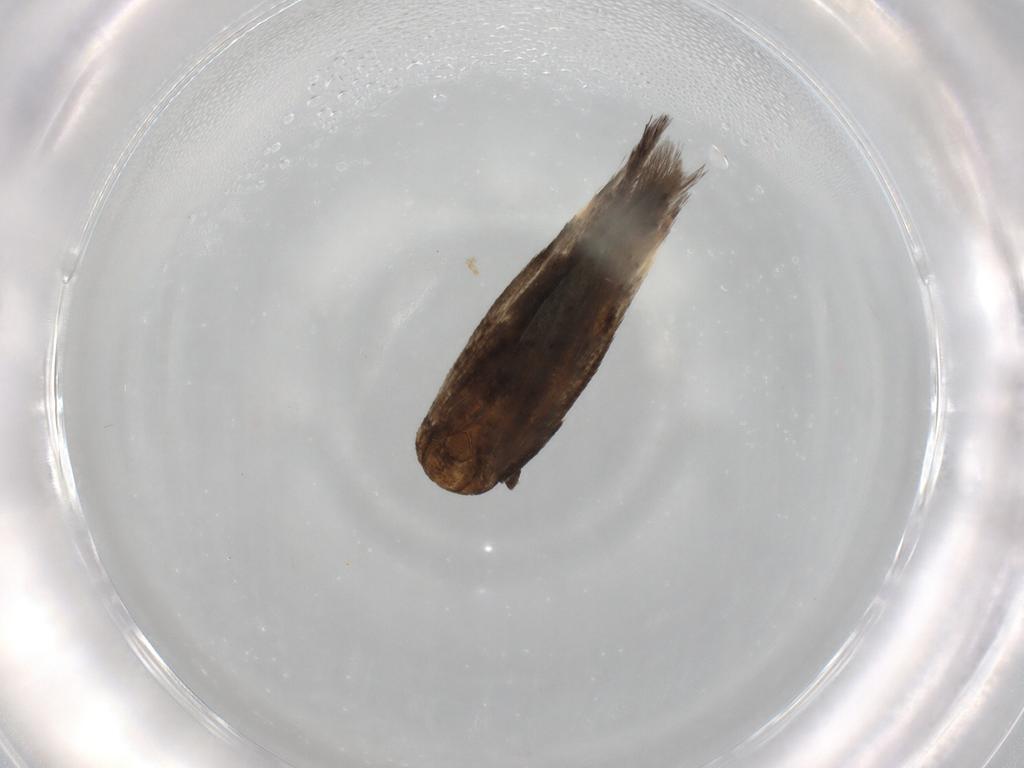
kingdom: Animalia
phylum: Arthropoda
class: Insecta
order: Lepidoptera
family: Gelechiidae
